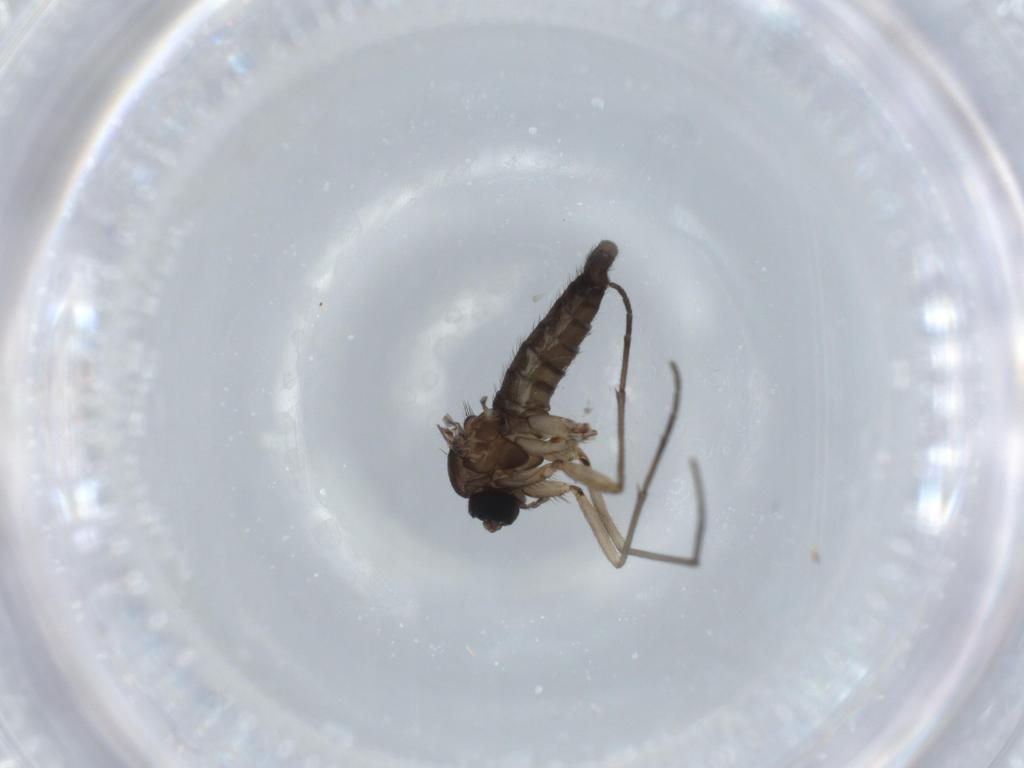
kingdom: Animalia
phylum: Arthropoda
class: Insecta
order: Diptera
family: Sciaridae
